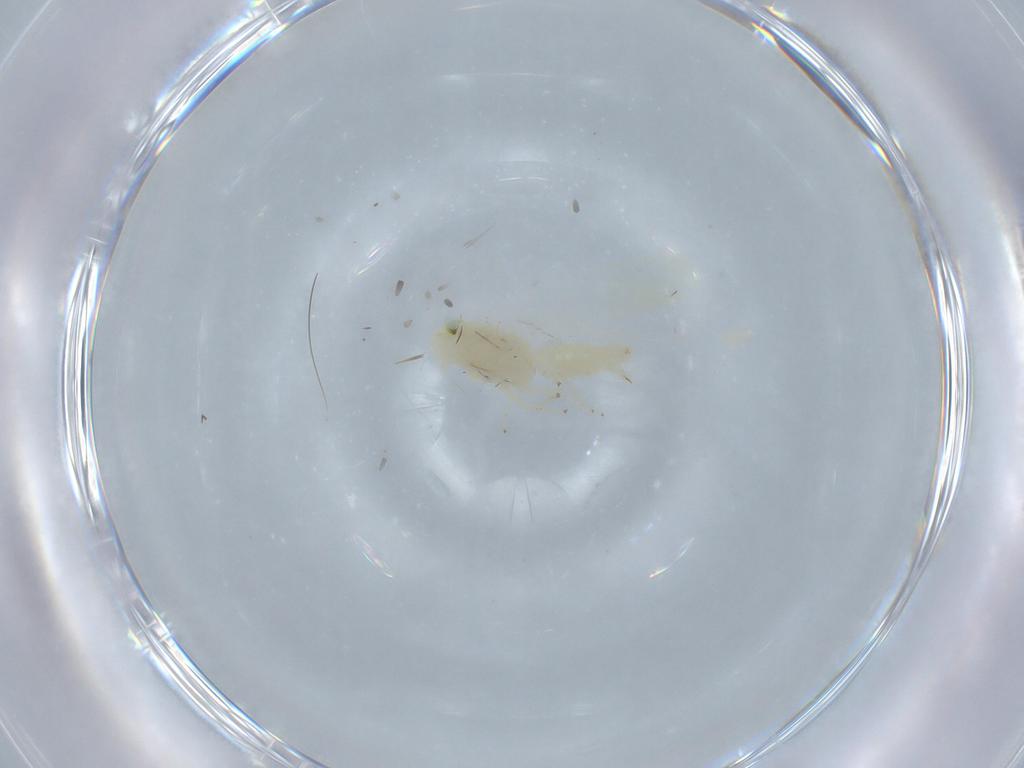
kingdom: Animalia
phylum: Arthropoda
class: Insecta
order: Hemiptera
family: Cicadellidae
